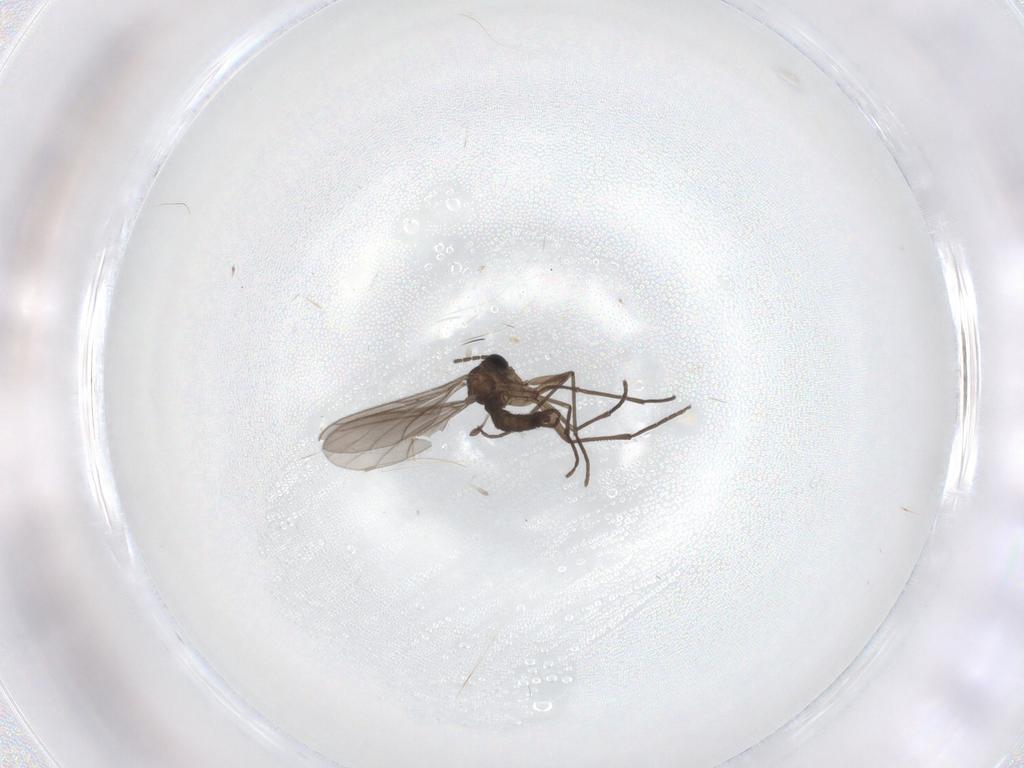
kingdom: Animalia
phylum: Arthropoda
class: Insecta
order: Diptera
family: Sciaridae
